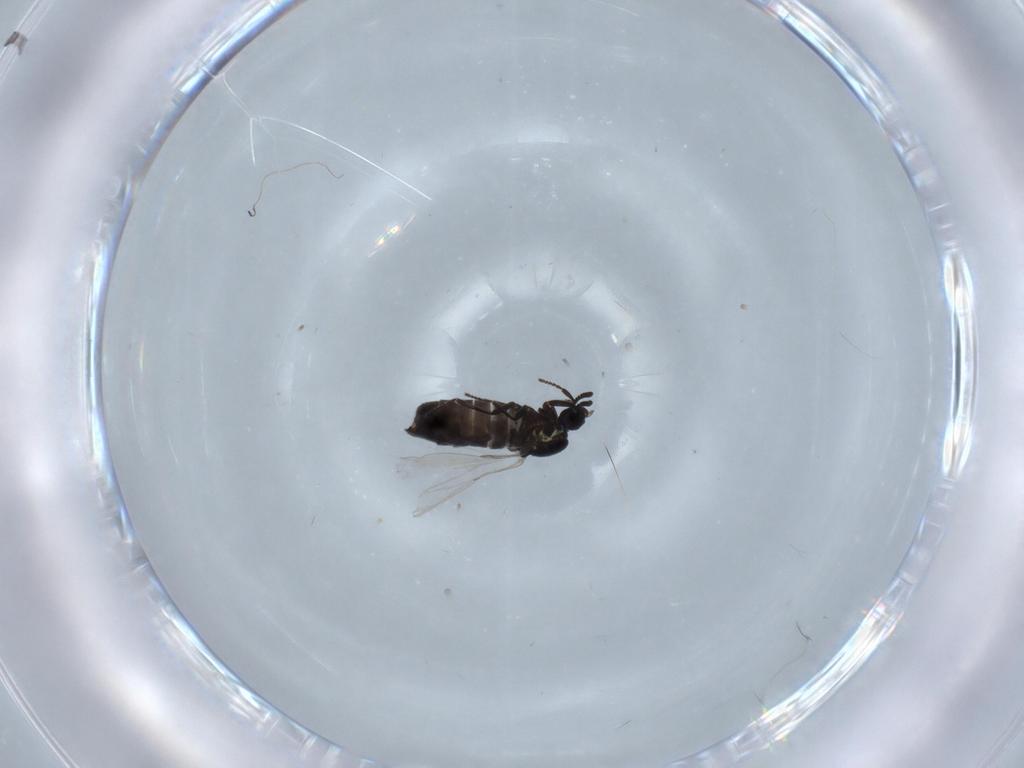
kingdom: Animalia
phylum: Arthropoda
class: Insecta
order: Diptera
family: Scatopsidae
